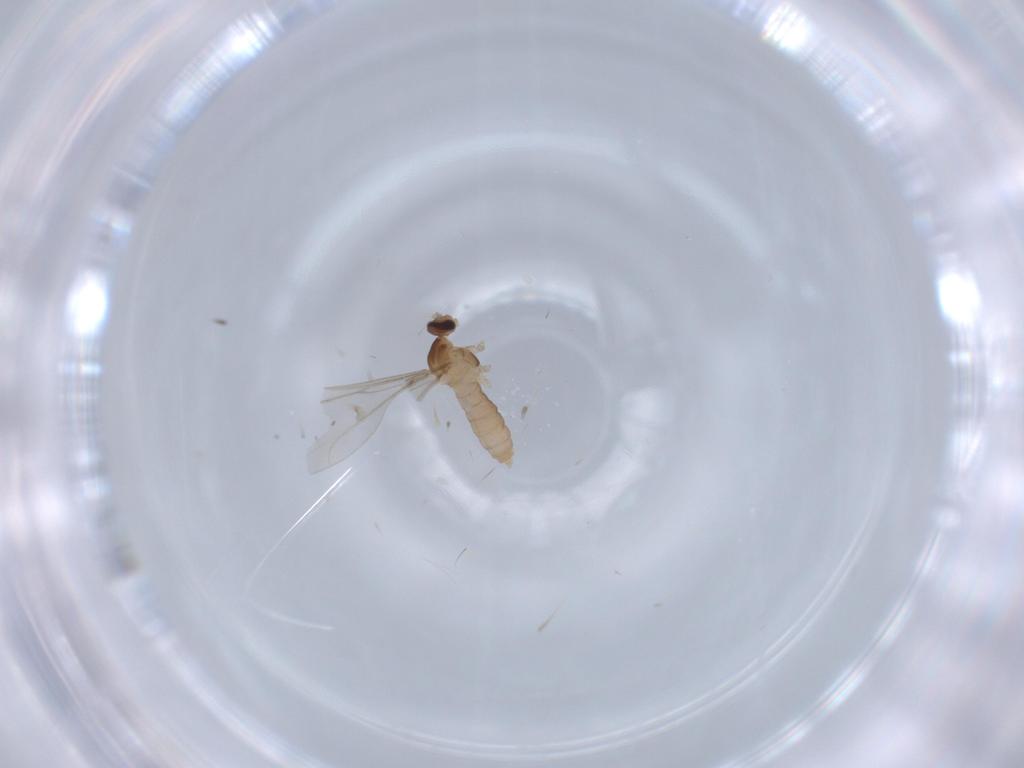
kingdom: Animalia
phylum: Arthropoda
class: Insecta
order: Diptera
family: Cecidomyiidae
